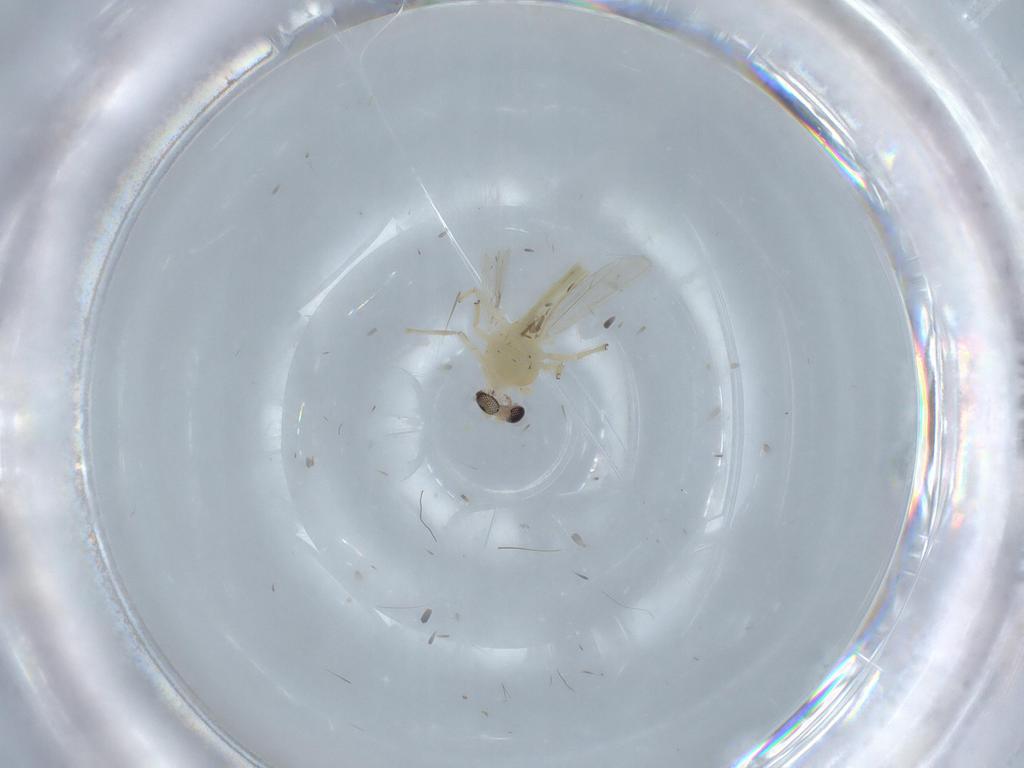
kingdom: Animalia
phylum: Arthropoda
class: Insecta
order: Diptera
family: Chironomidae
